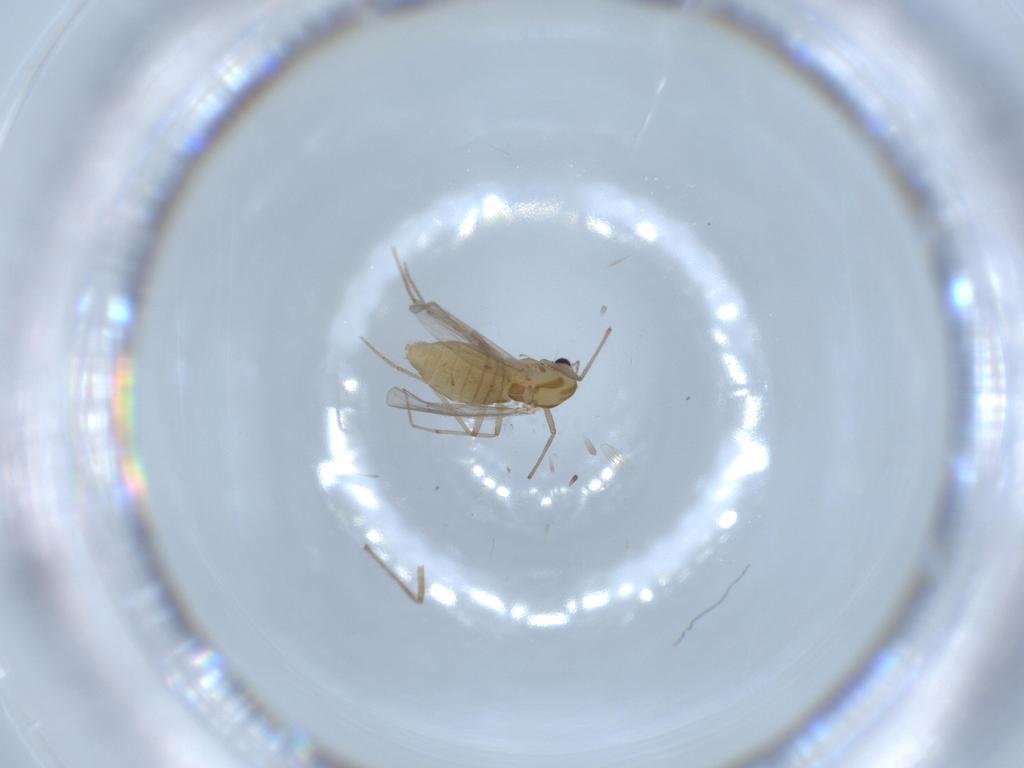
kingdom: Animalia
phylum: Arthropoda
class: Insecta
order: Diptera
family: Chironomidae
